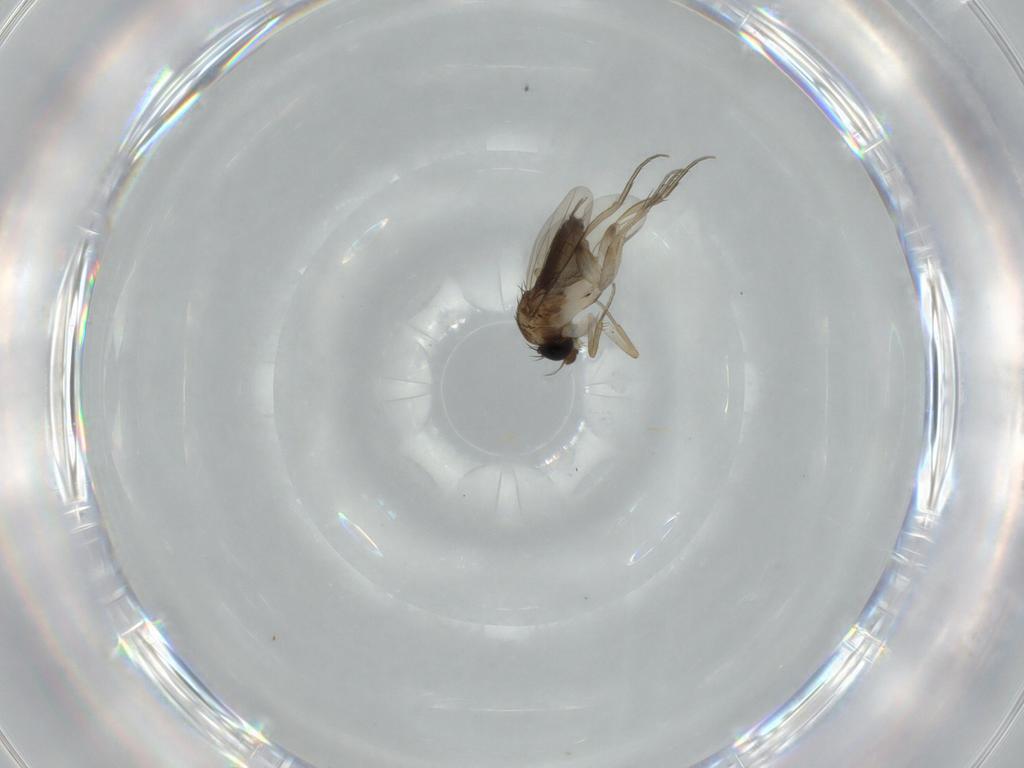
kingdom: Animalia
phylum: Arthropoda
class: Insecta
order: Diptera
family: Phoridae
